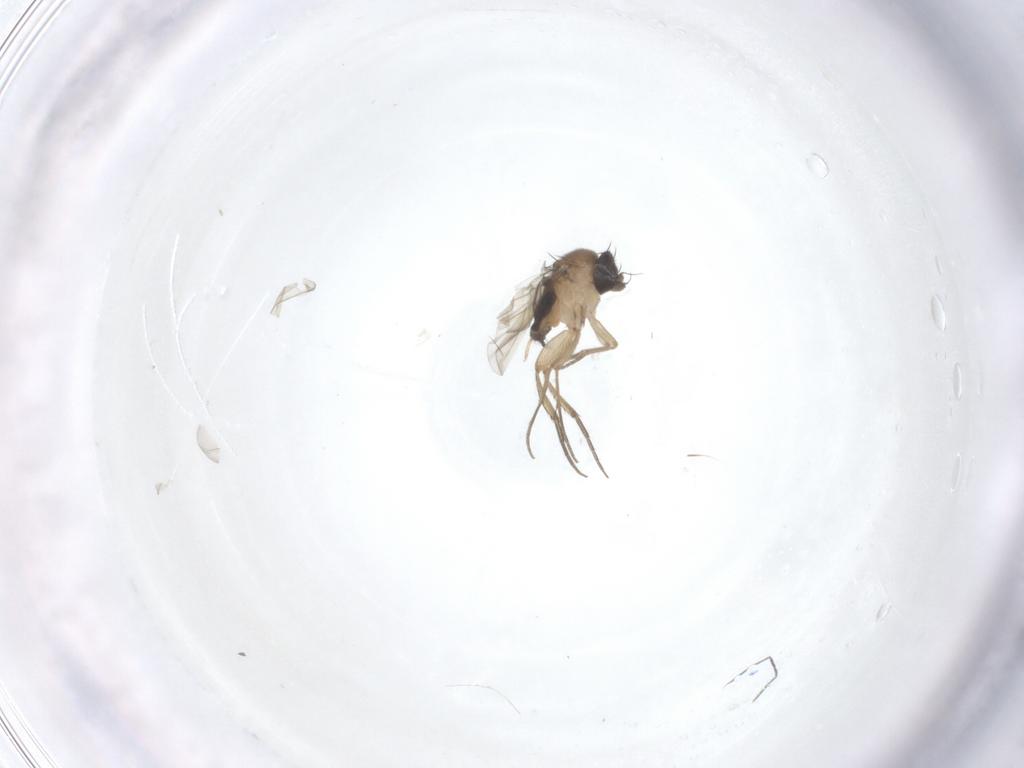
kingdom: Animalia
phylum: Arthropoda
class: Insecta
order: Diptera
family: Phoridae
